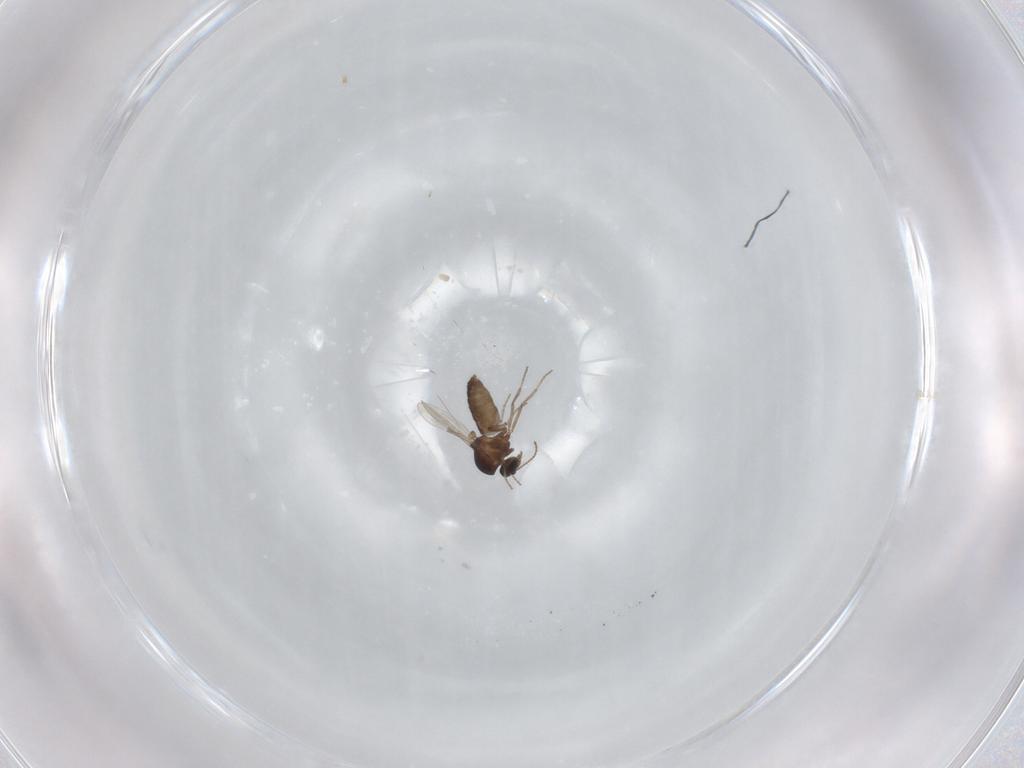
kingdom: Animalia
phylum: Arthropoda
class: Insecta
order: Diptera
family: Ceratopogonidae
